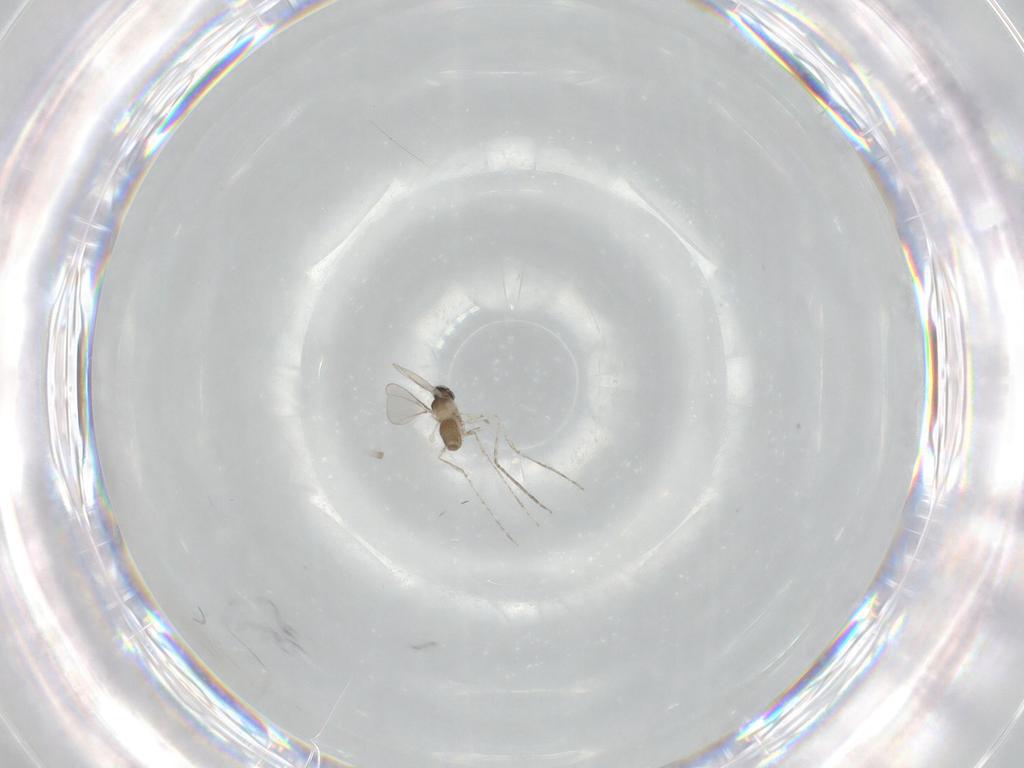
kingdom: Animalia
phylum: Arthropoda
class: Insecta
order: Diptera
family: Cecidomyiidae
